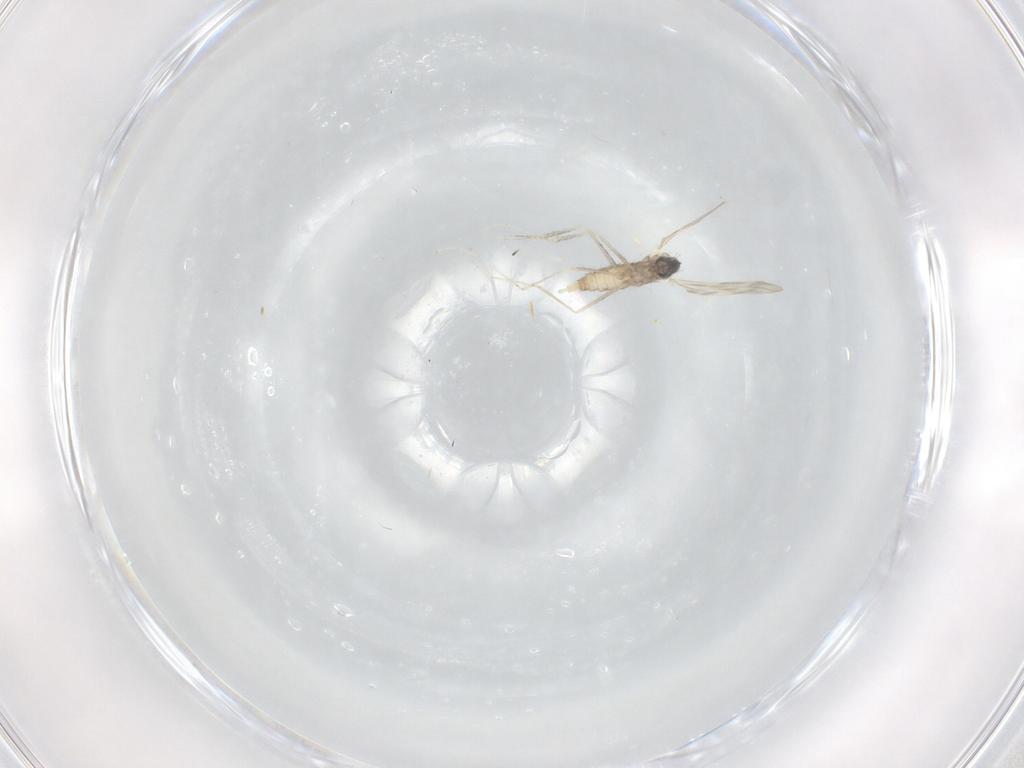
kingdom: Animalia
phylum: Arthropoda
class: Insecta
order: Diptera
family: Cecidomyiidae
